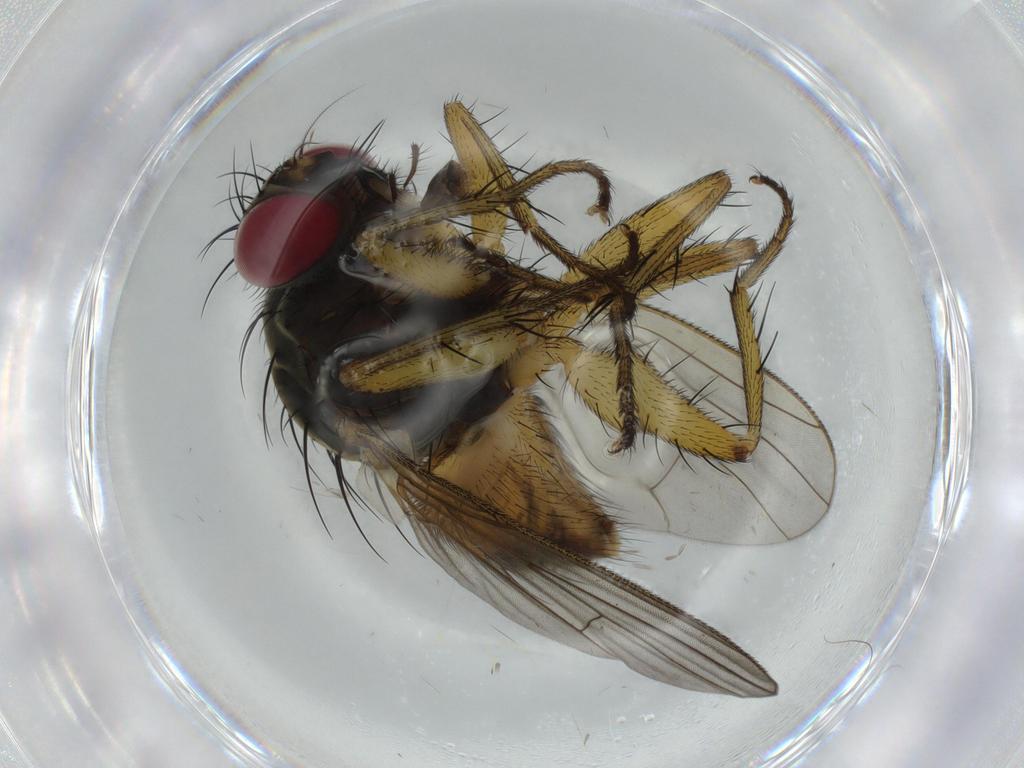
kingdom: Animalia
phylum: Arthropoda
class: Insecta
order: Diptera
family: Muscidae
